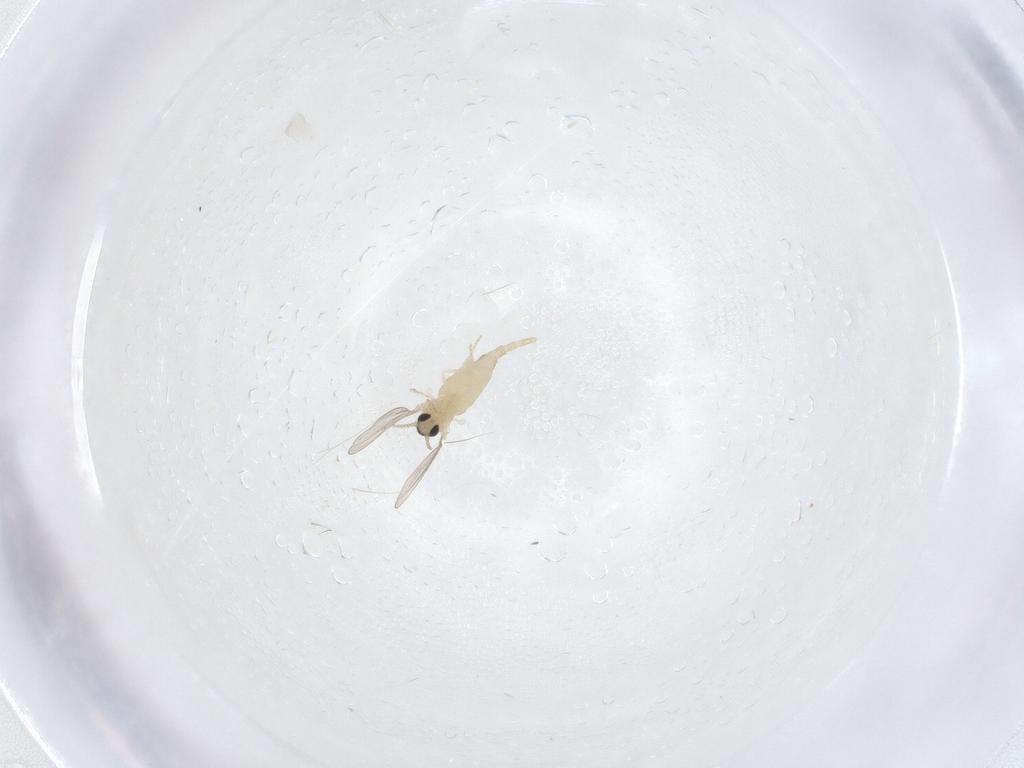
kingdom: Animalia
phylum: Arthropoda
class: Insecta
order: Diptera
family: Cecidomyiidae
